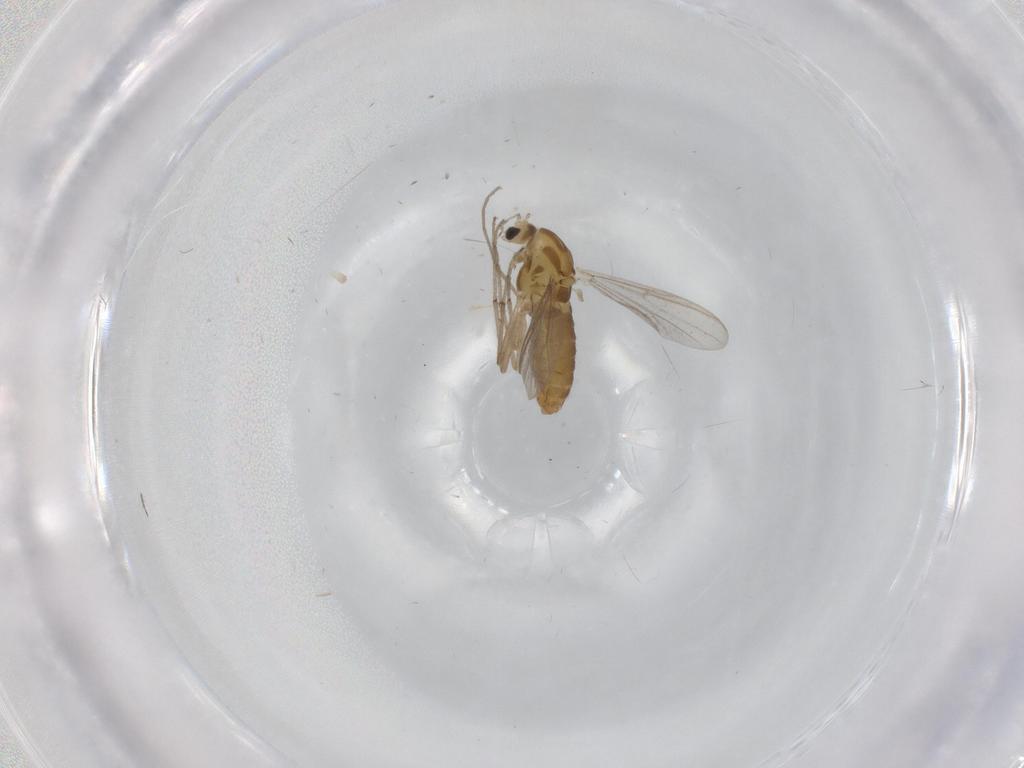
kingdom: Animalia
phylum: Arthropoda
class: Insecta
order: Diptera
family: Chironomidae
